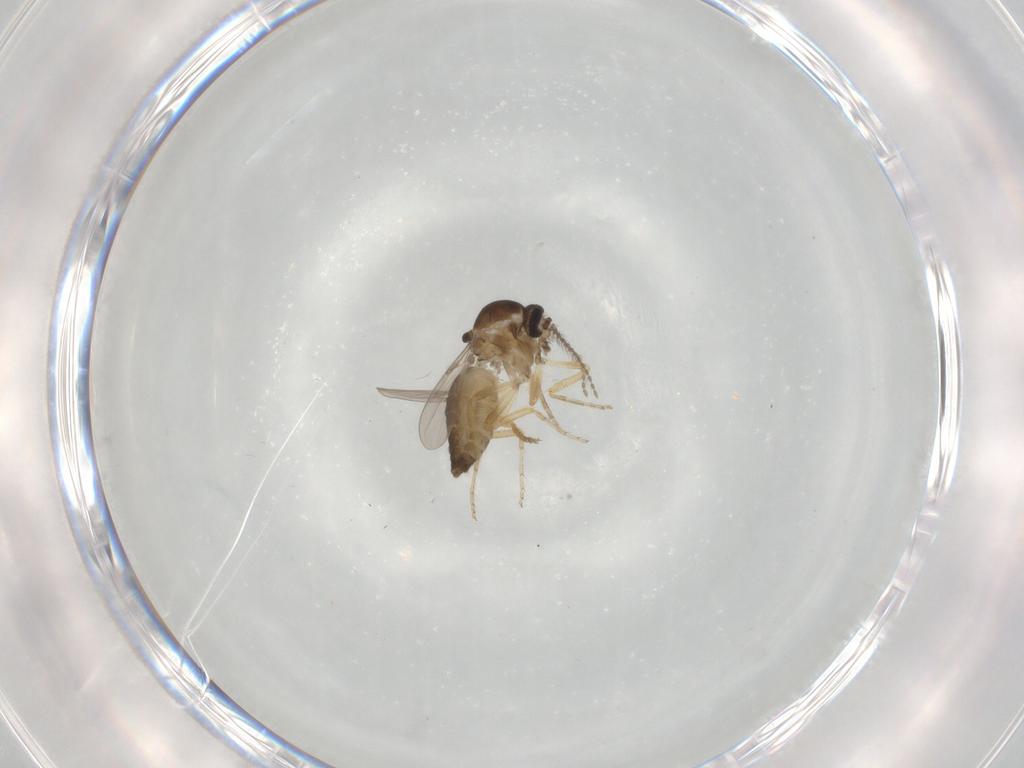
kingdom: Animalia
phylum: Arthropoda
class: Insecta
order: Diptera
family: Ceratopogonidae
